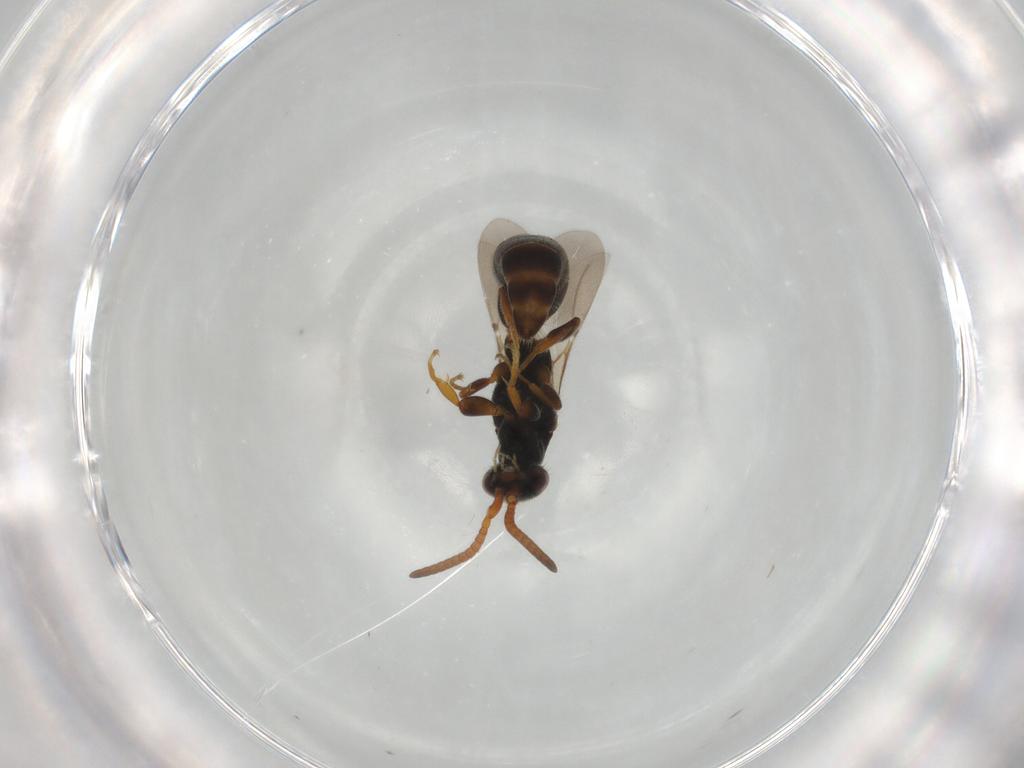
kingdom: Animalia
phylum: Arthropoda
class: Insecta
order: Hymenoptera
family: Bethylidae
